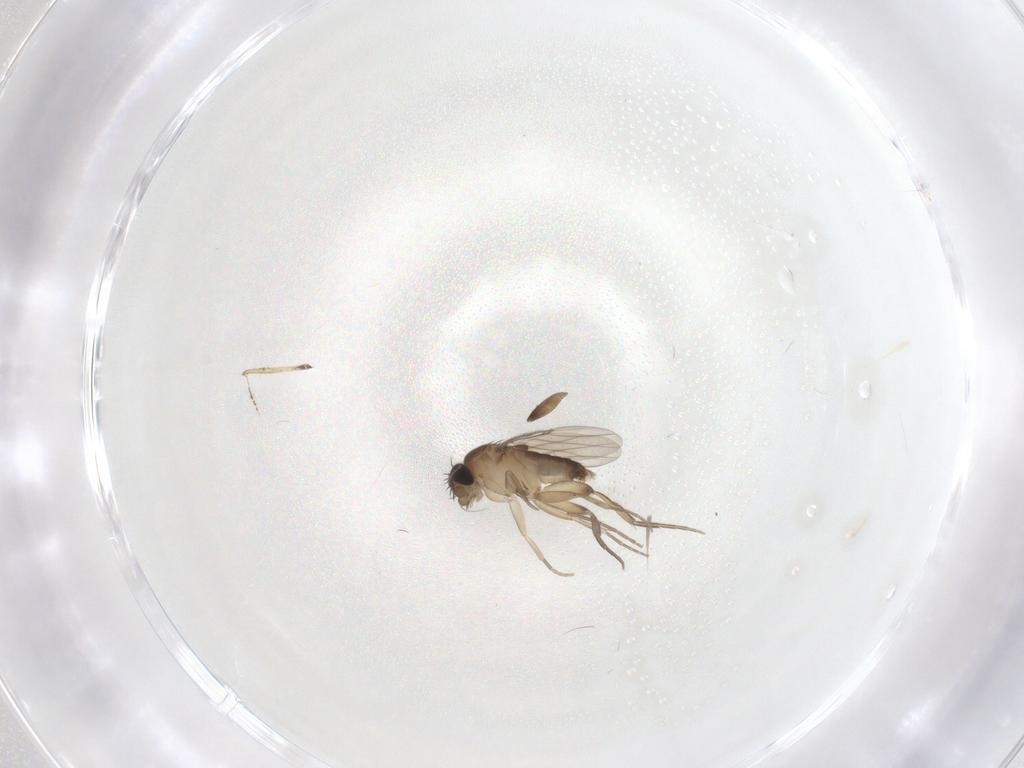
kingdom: Animalia
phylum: Arthropoda
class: Insecta
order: Diptera
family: Phoridae
